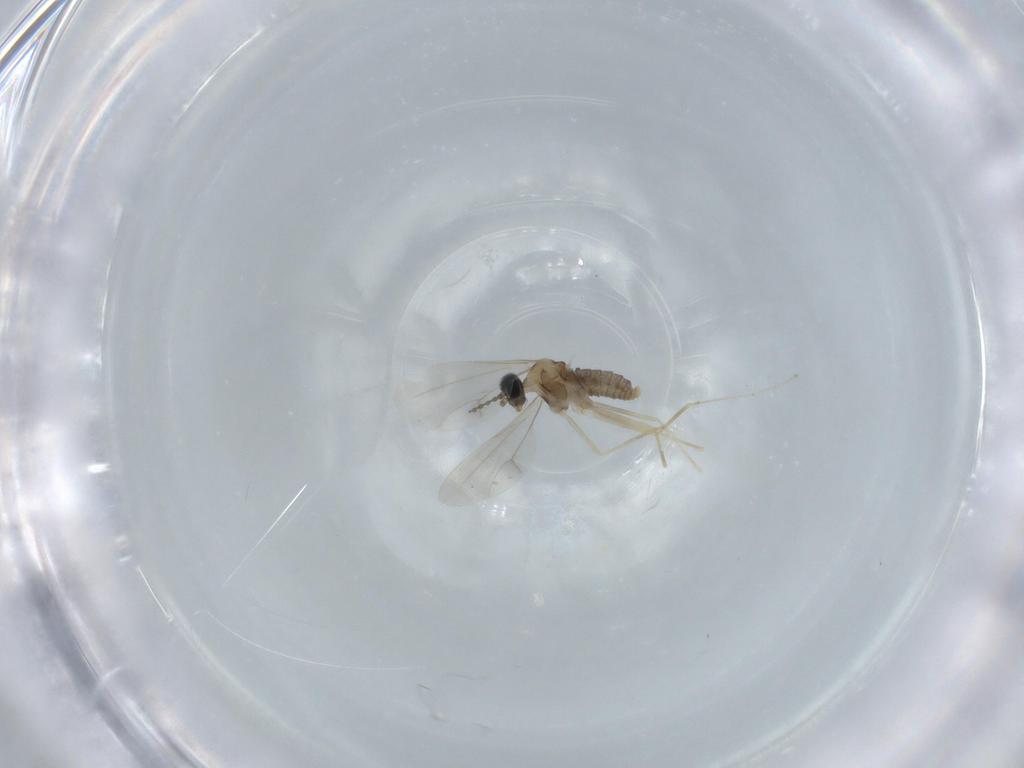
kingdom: Animalia
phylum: Arthropoda
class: Insecta
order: Diptera
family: Cecidomyiidae
